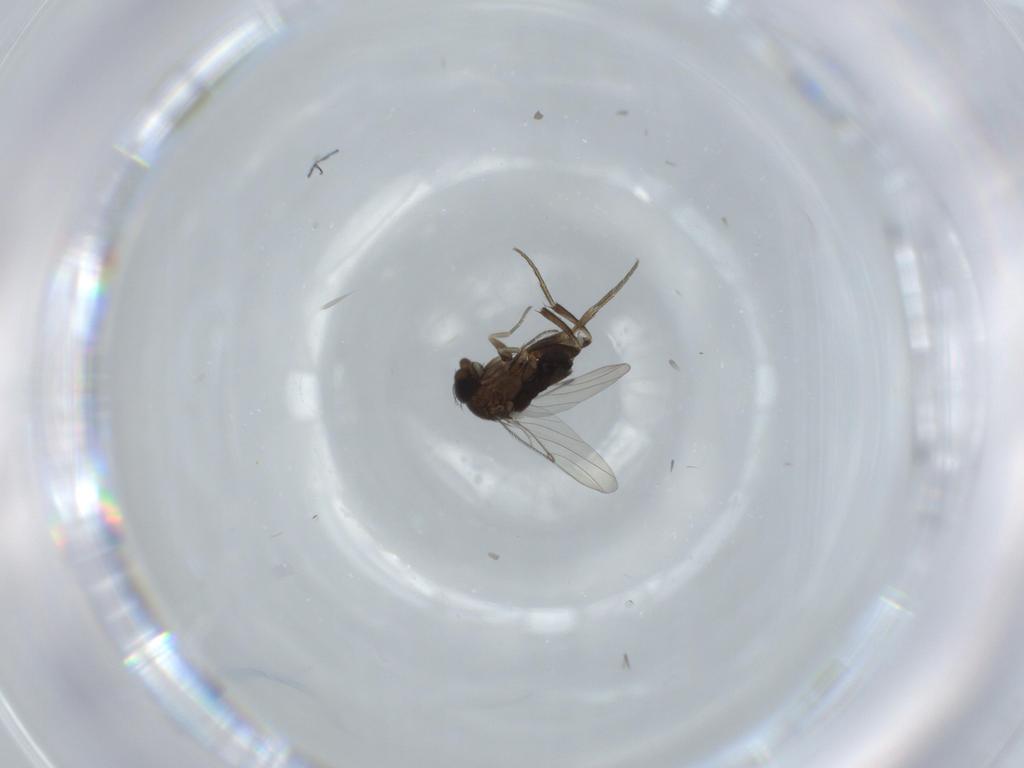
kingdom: Animalia
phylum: Arthropoda
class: Insecta
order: Diptera
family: Phoridae
